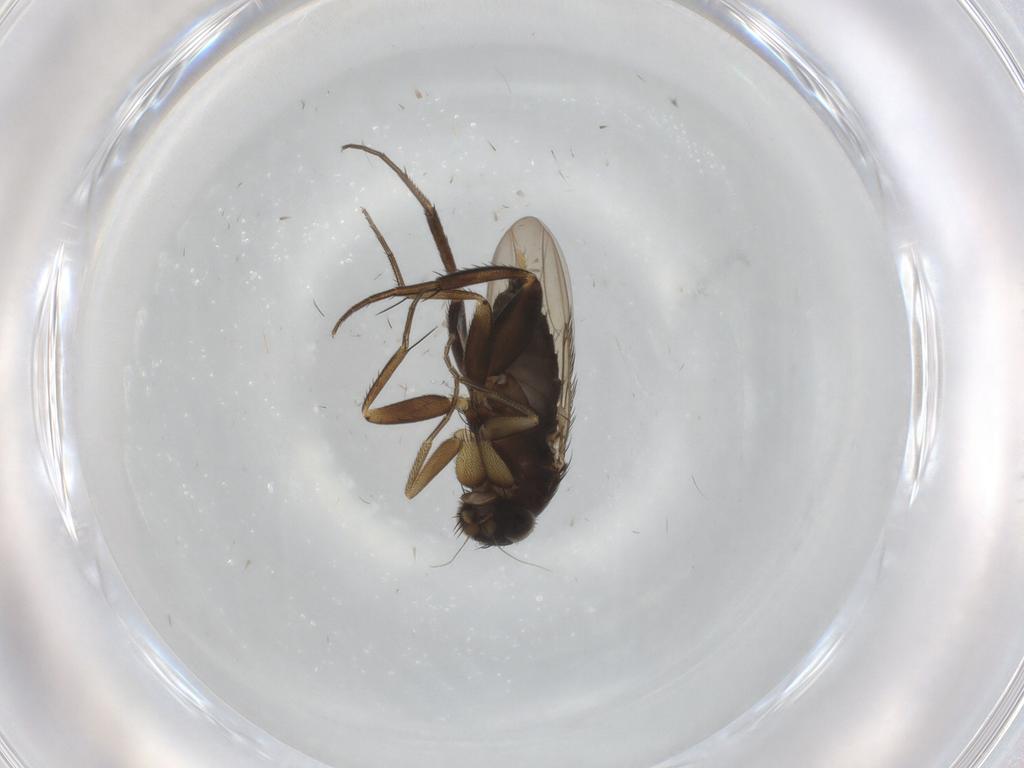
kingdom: Animalia
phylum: Arthropoda
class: Insecta
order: Diptera
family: Phoridae
